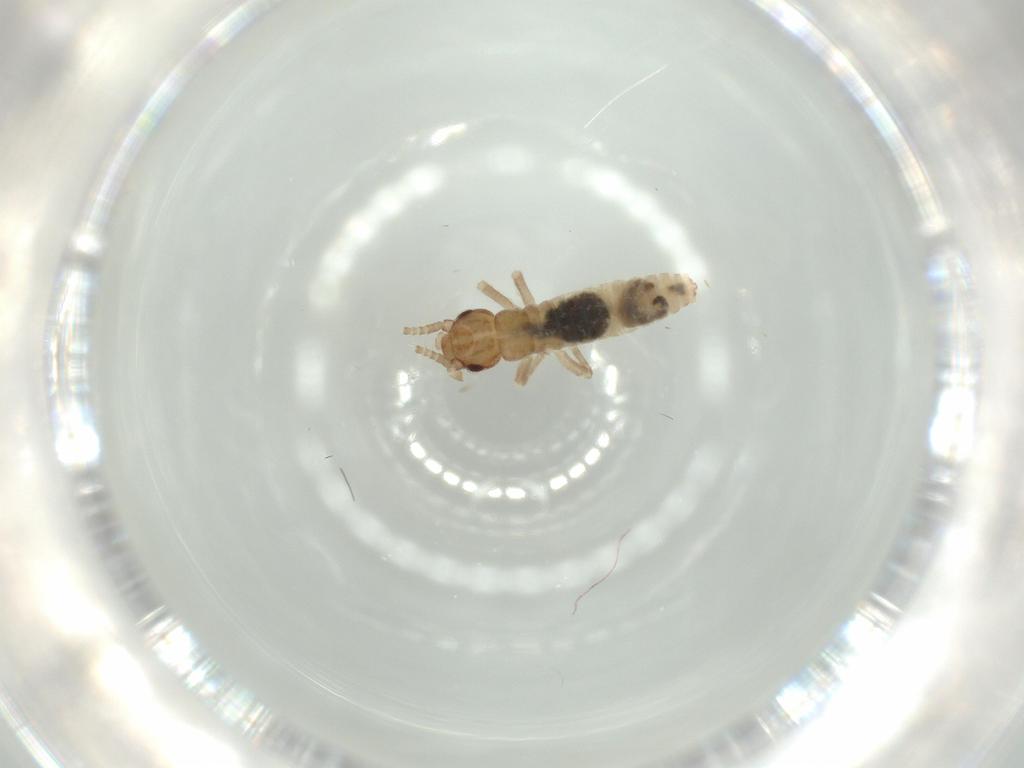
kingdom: Animalia
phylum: Arthropoda
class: Insecta
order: Orthoptera
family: Mogoplistidae
